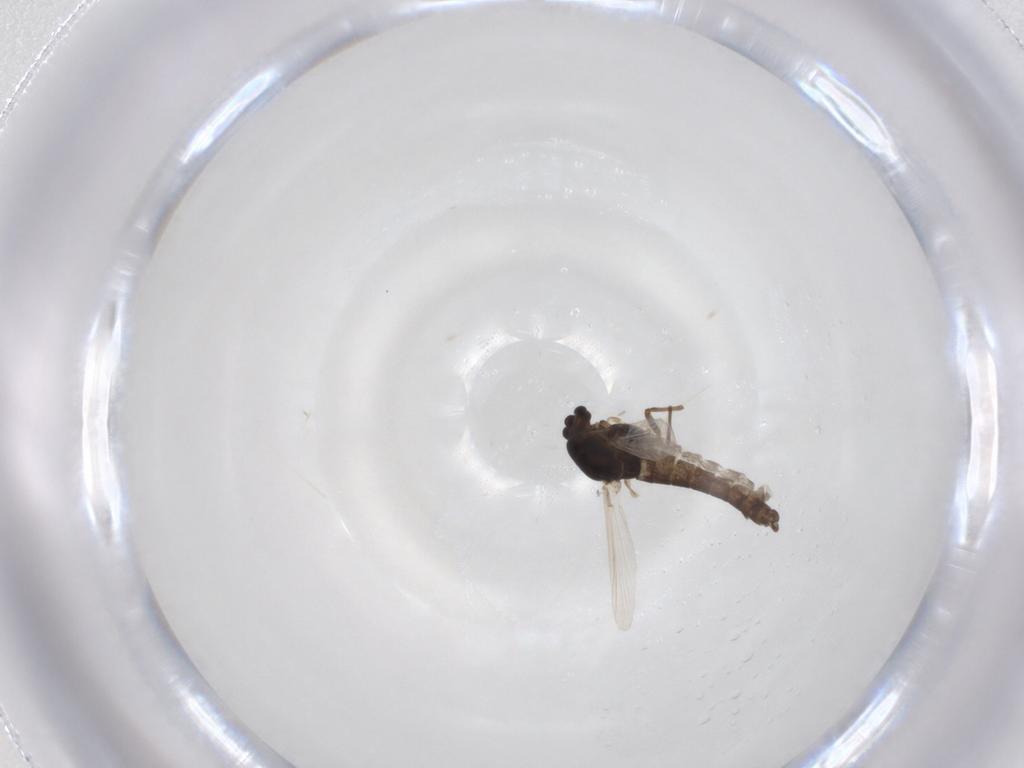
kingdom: Animalia
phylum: Arthropoda
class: Insecta
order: Diptera
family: Chironomidae
